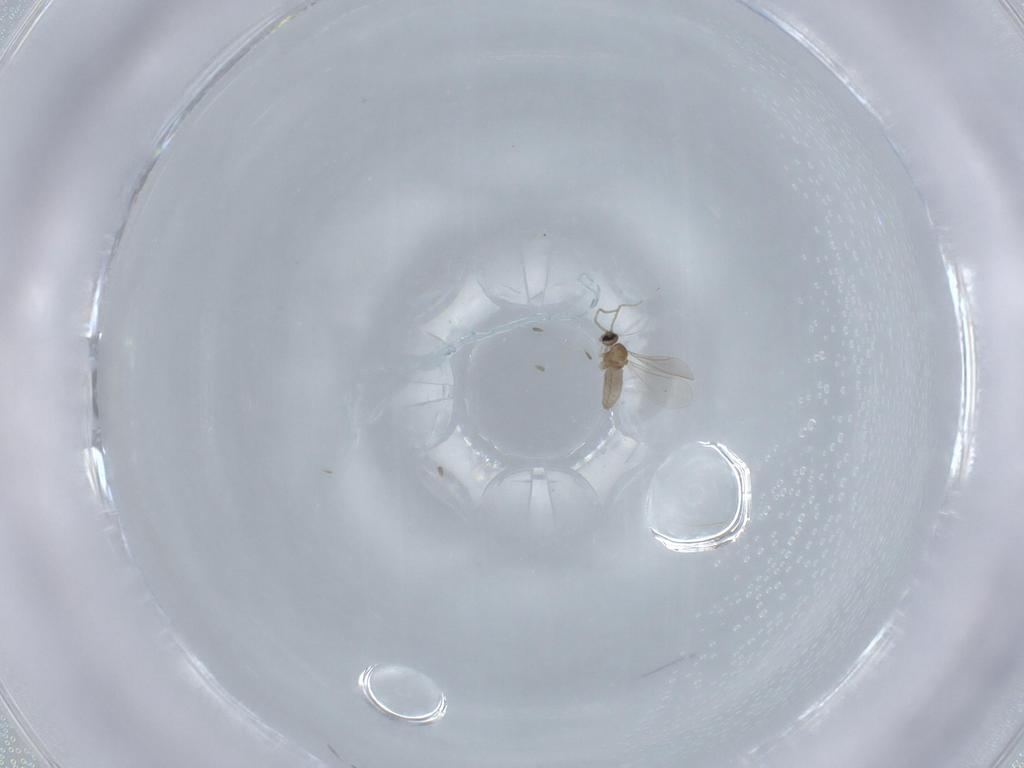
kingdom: Animalia
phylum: Arthropoda
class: Insecta
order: Diptera
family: Cecidomyiidae
